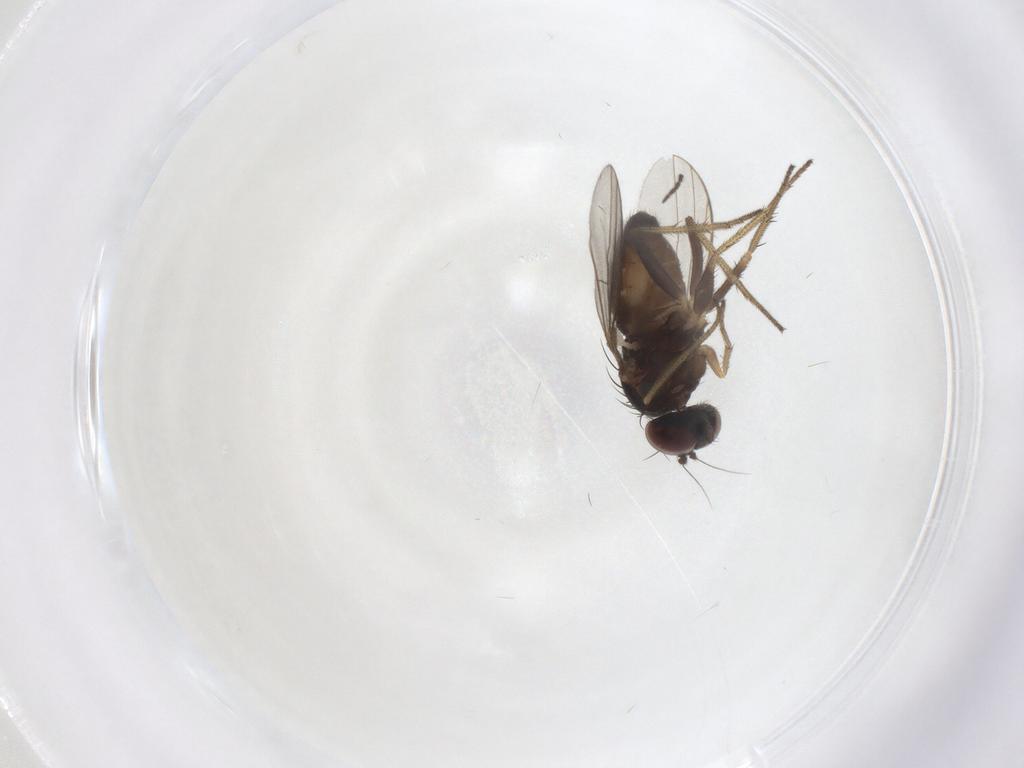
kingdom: Animalia
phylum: Arthropoda
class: Insecta
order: Diptera
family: Dolichopodidae
